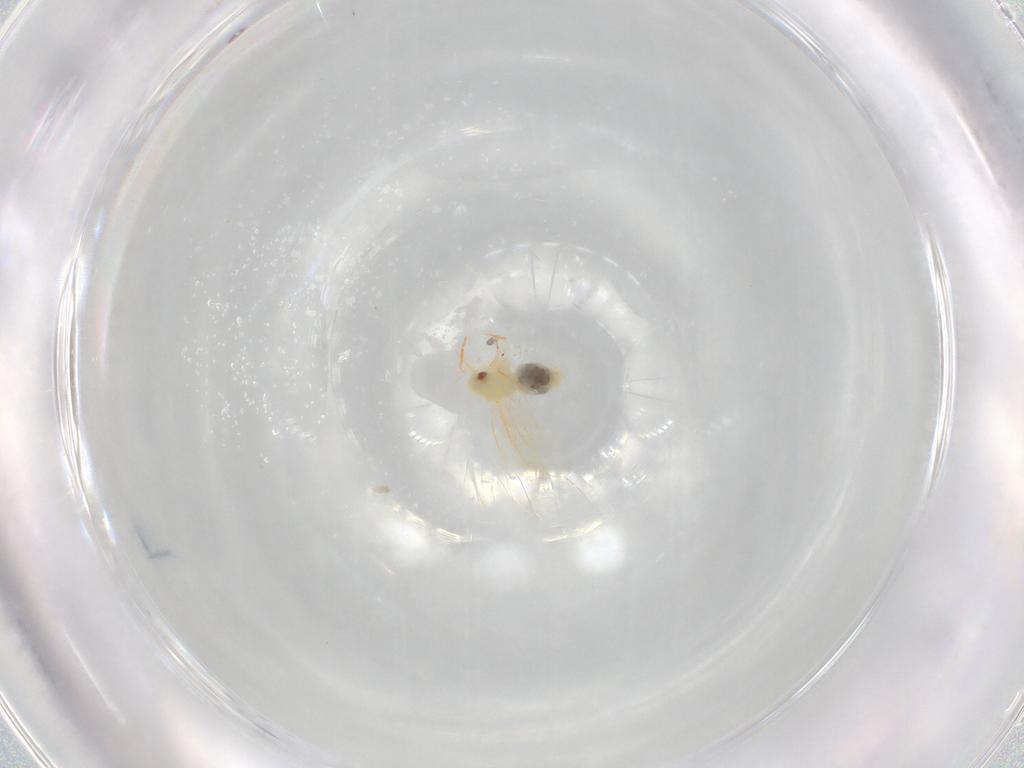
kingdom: Animalia
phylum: Arthropoda
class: Insecta
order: Hemiptera
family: Aleyrodidae
